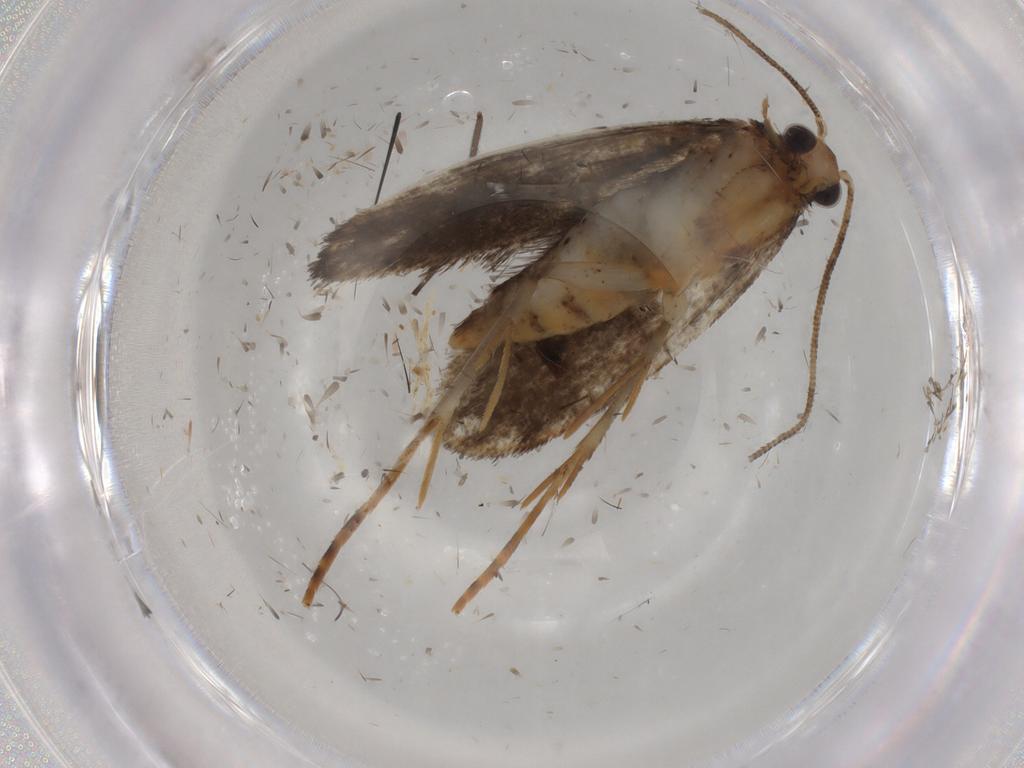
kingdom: Animalia
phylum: Arthropoda
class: Insecta
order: Lepidoptera
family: Tineidae
